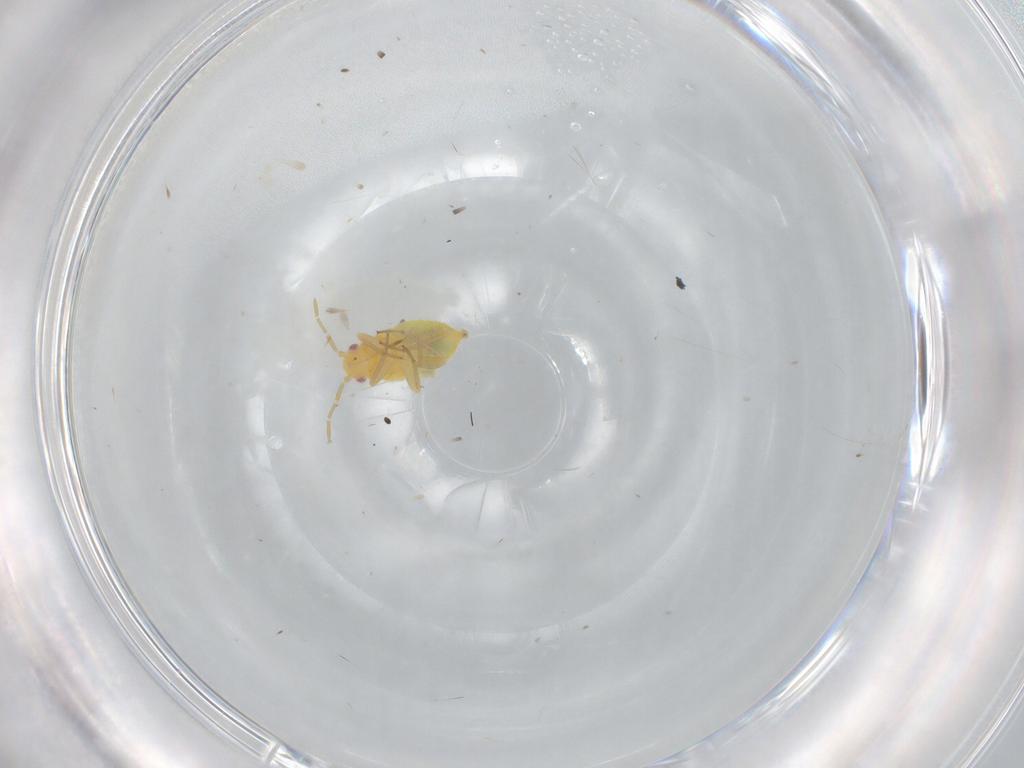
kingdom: Animalia
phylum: Arthropoda
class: Insecta
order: Hemiptera
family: Miridae
